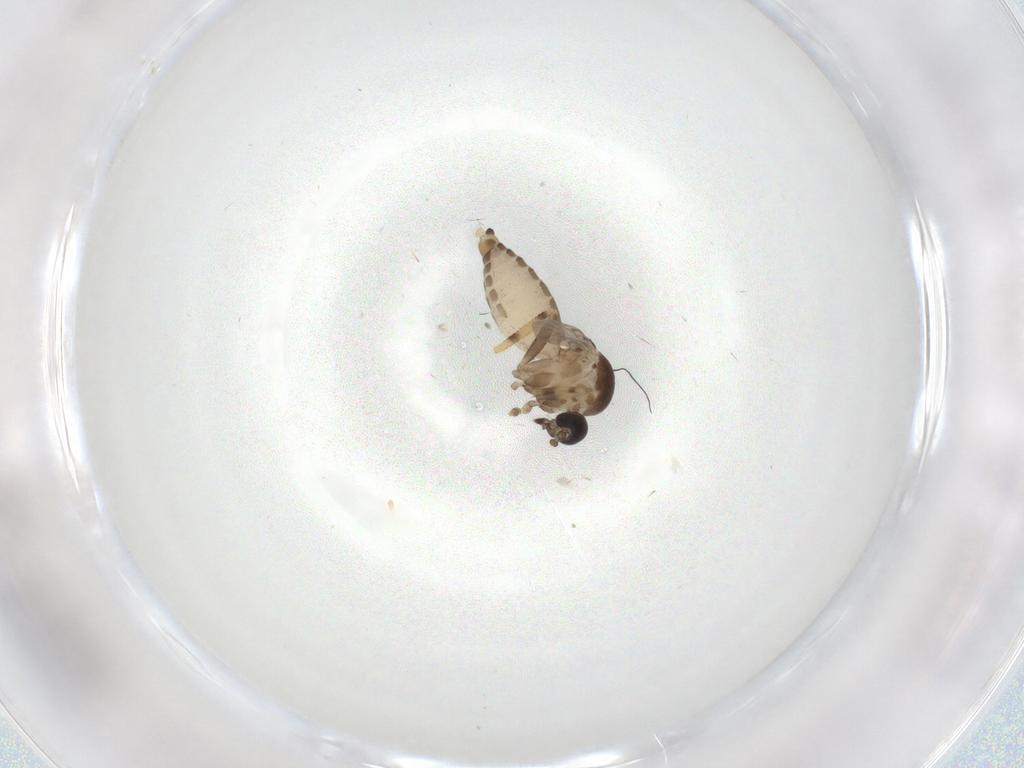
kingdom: Animalia
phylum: Arthropoda
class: Insecta
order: Diptera
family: Ceratopogonidae
